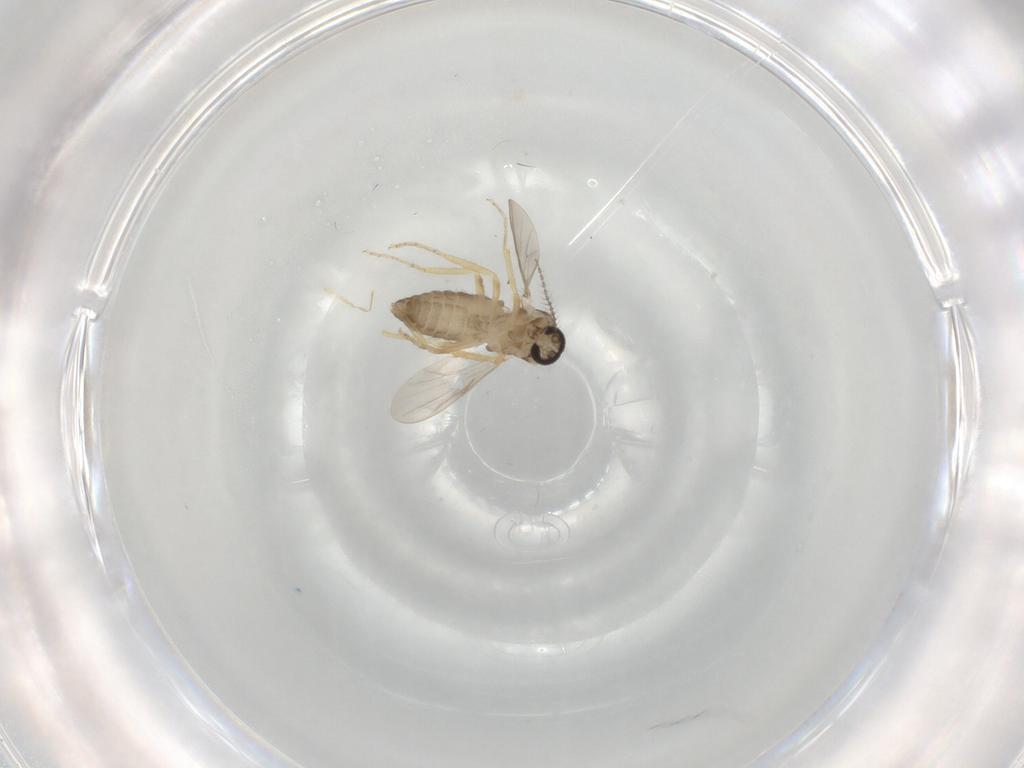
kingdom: Animalia
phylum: Arthropoda
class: Insecta
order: Diptera
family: Ceratopogonidae
